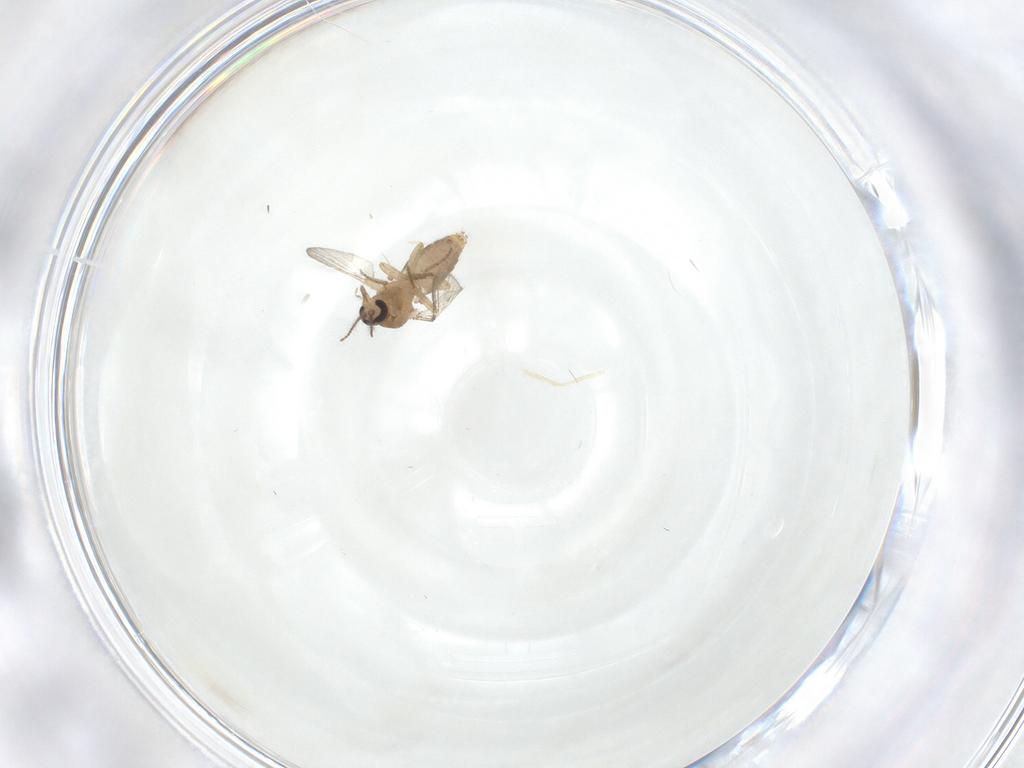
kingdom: Animalia
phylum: Arthropoda
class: Insecta
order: Diptera
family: Ceratopogonidae
